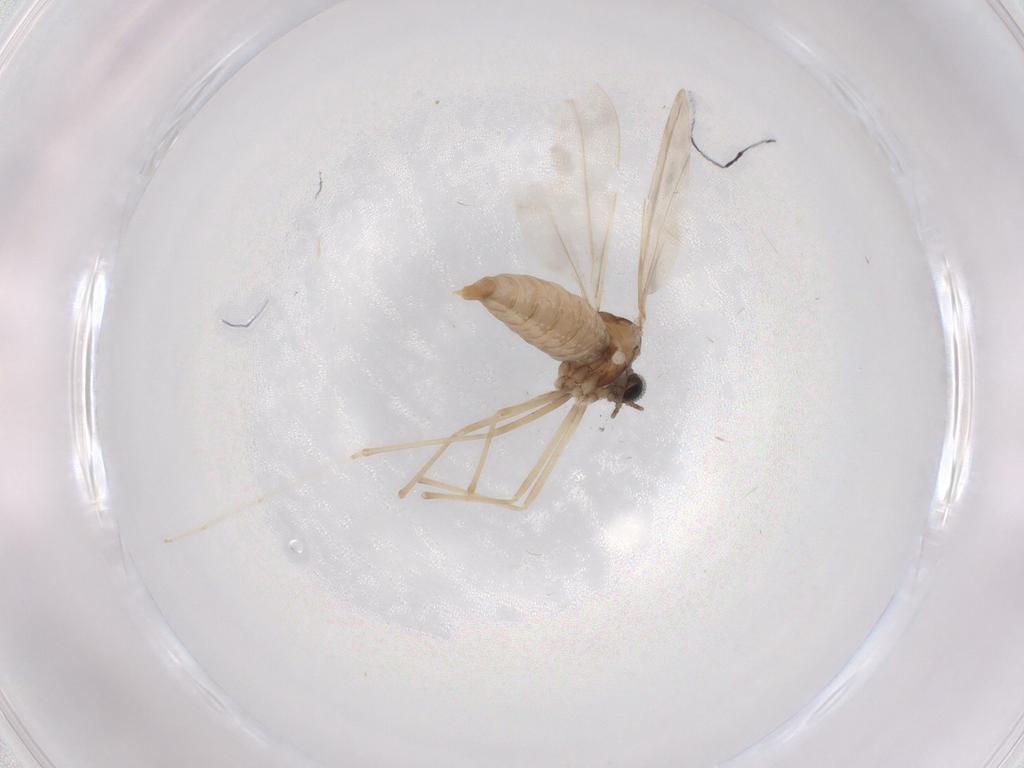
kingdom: Animalia
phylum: Arthropoda
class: Insecta
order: Diptera
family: Cecidomyiidae
